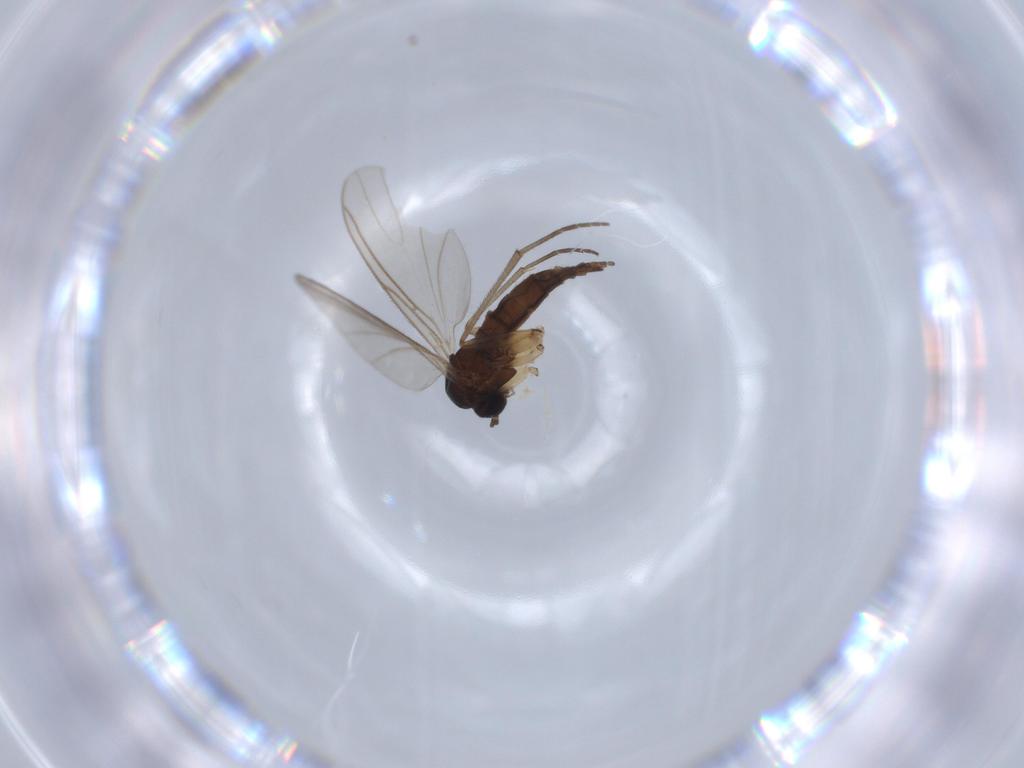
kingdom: Animalia
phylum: Arthropoda
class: Insecta
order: Diptera
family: Sciaridae
